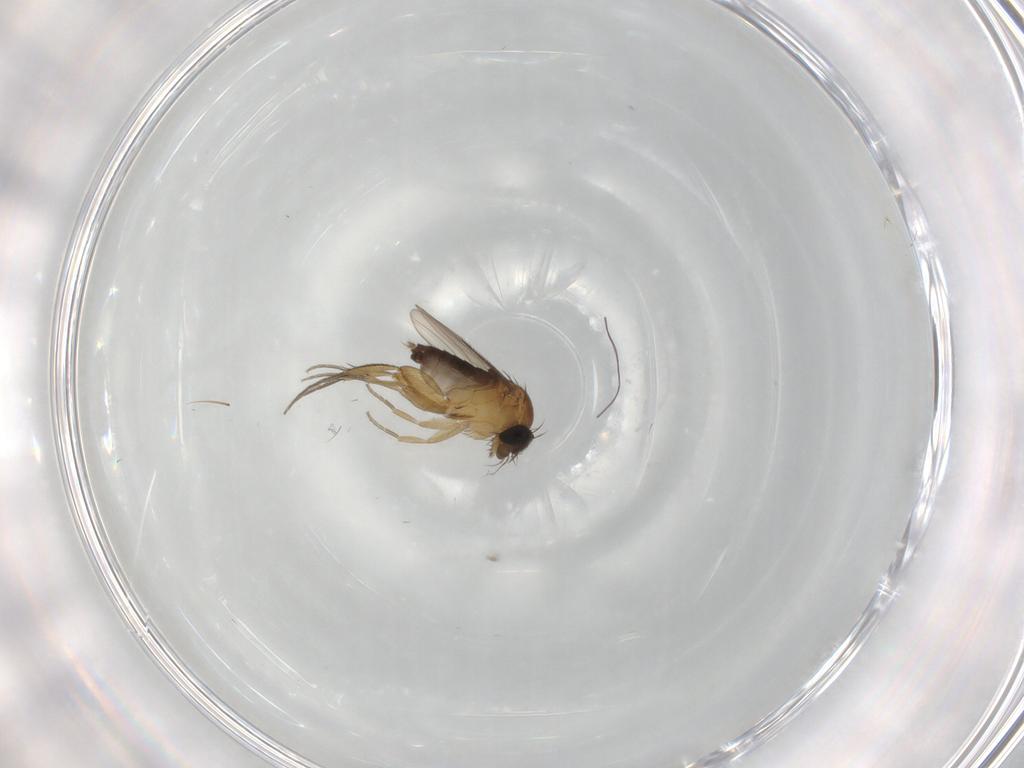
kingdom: Animalia
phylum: Arthropoda
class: Insecta
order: Diptera
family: Phoridae
